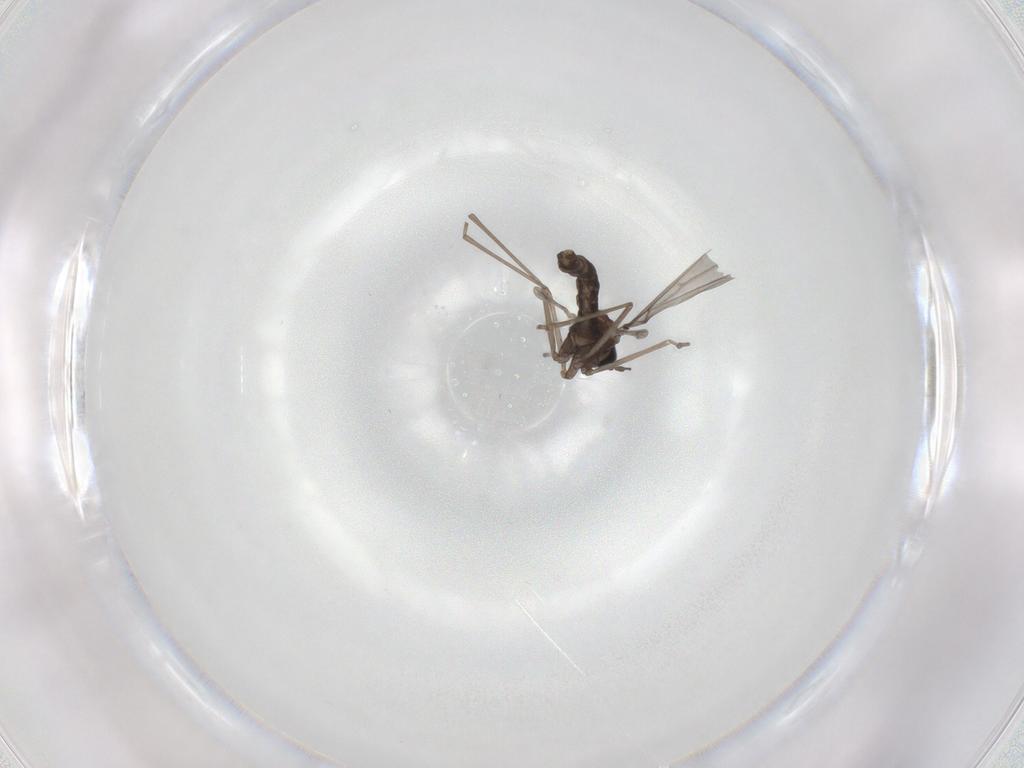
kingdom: Animalia
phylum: Arthropoda
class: Insecta
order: Diptera
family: Cecidomyiidae
